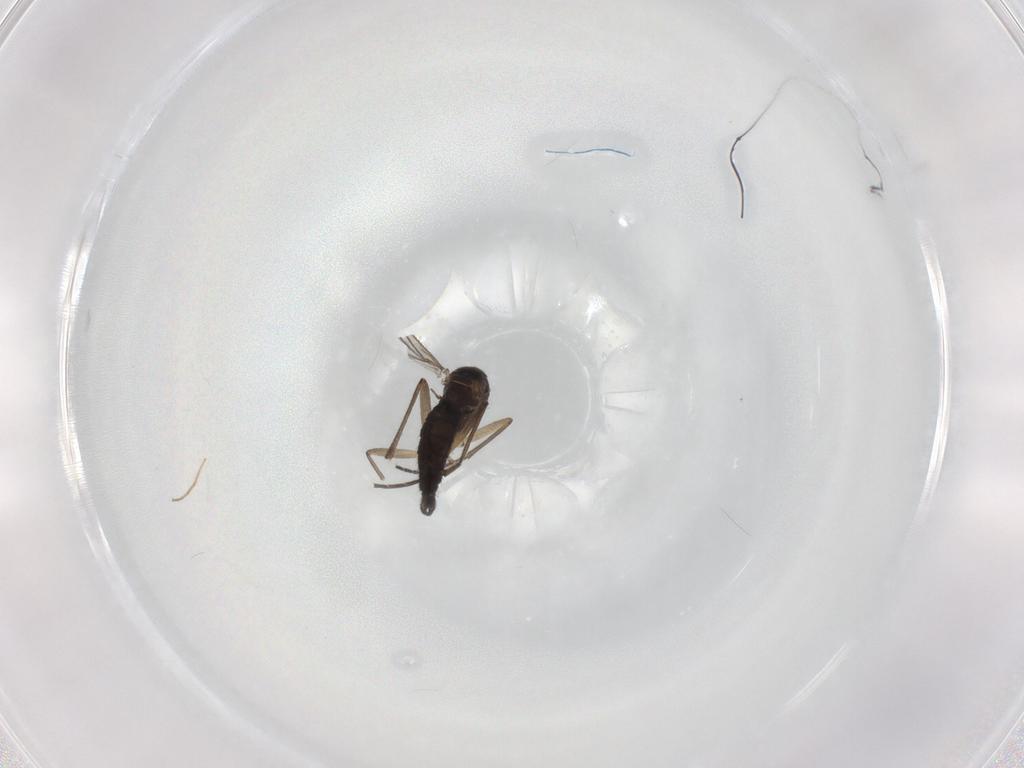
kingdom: Animalia
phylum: Arthropoda
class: Insecta
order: Diptera
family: Sciaridae
